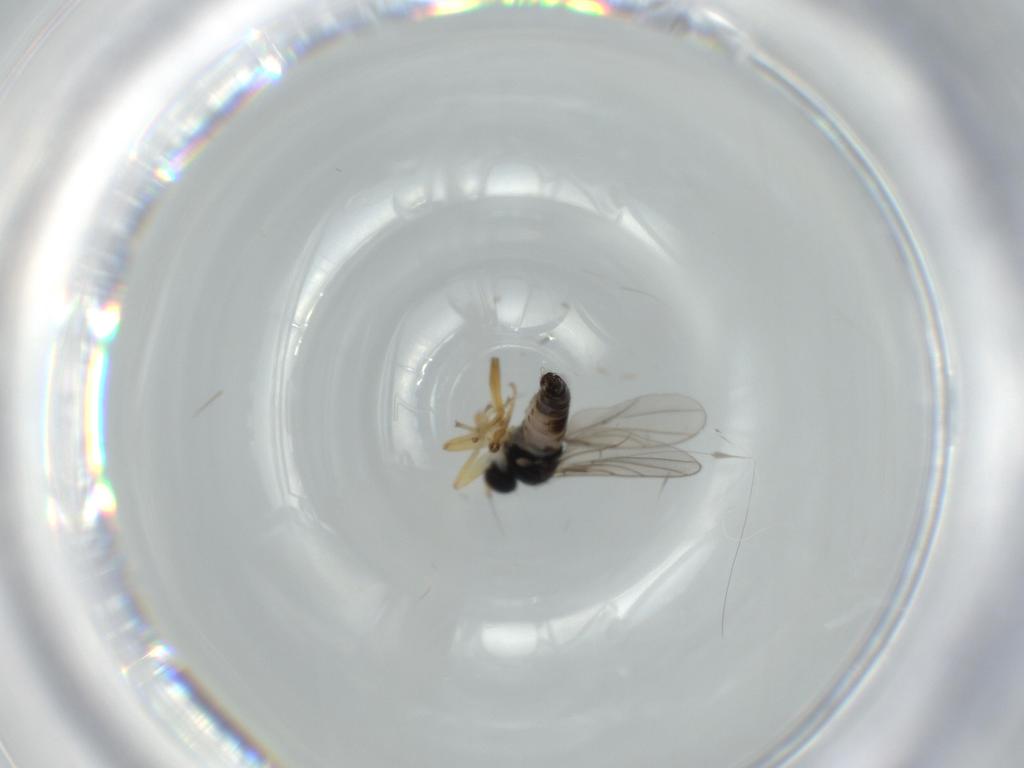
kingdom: Animalia
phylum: Arthropoda
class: Insecta
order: Diptera
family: Hybotidae
